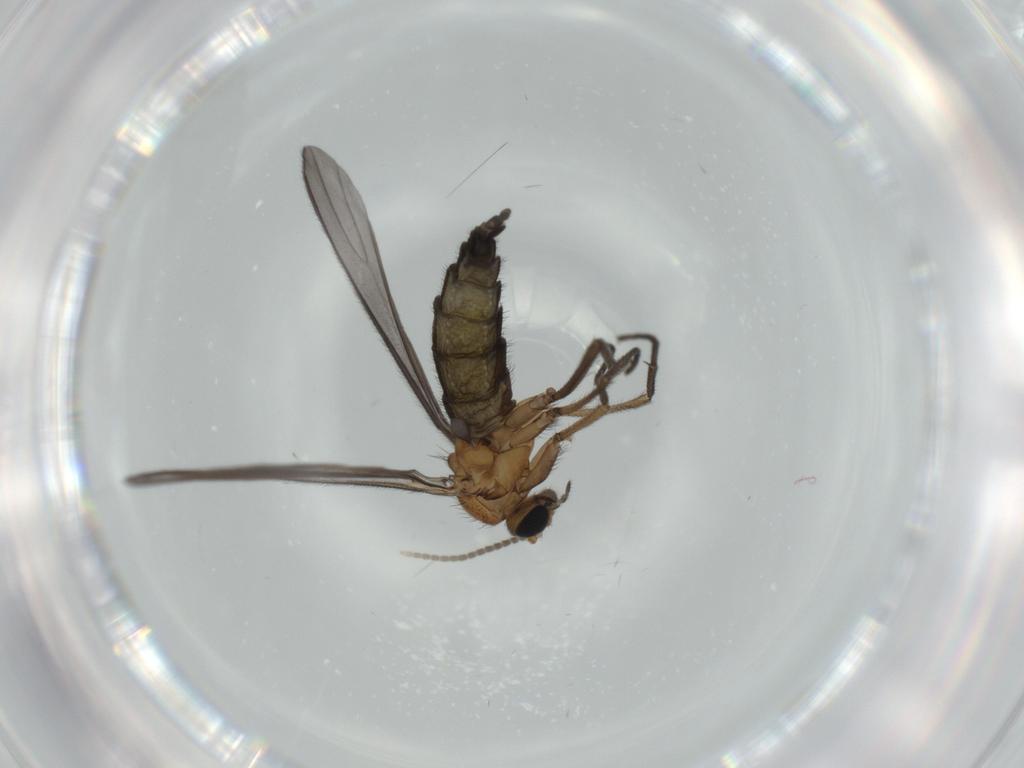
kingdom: Animalia
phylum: Arthropoda
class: Insecta
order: Diptera
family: Sciaridae
